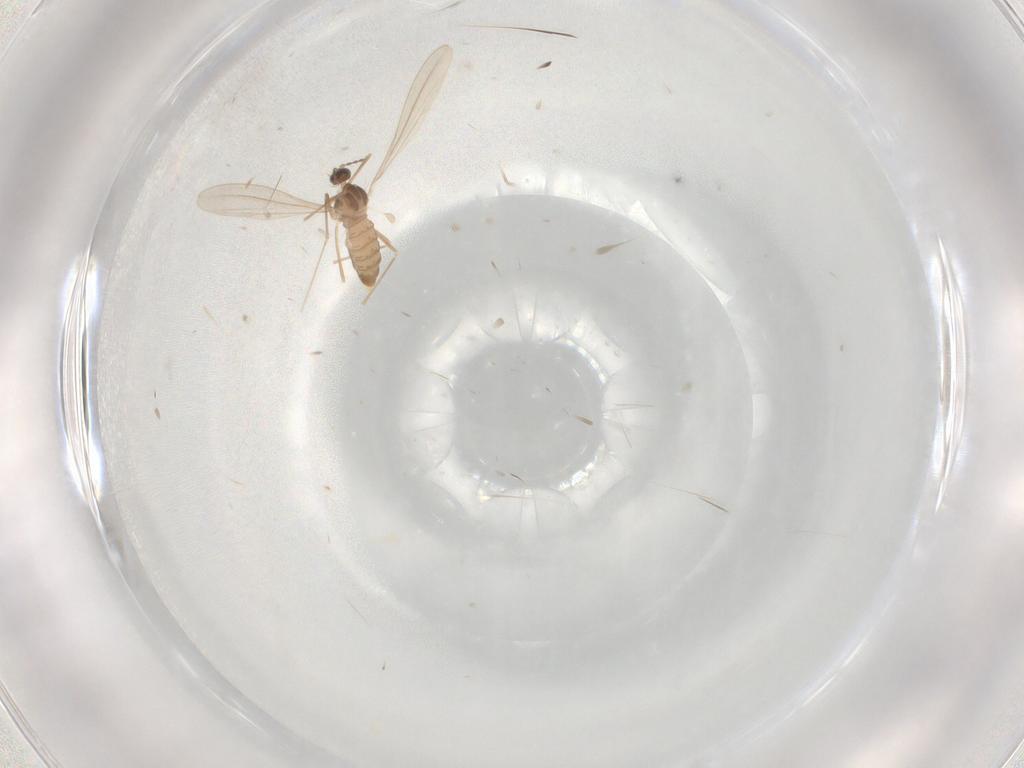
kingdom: Animalia
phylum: Arthropoda
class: Insecta
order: Diptera
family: Cecidomyiidae
